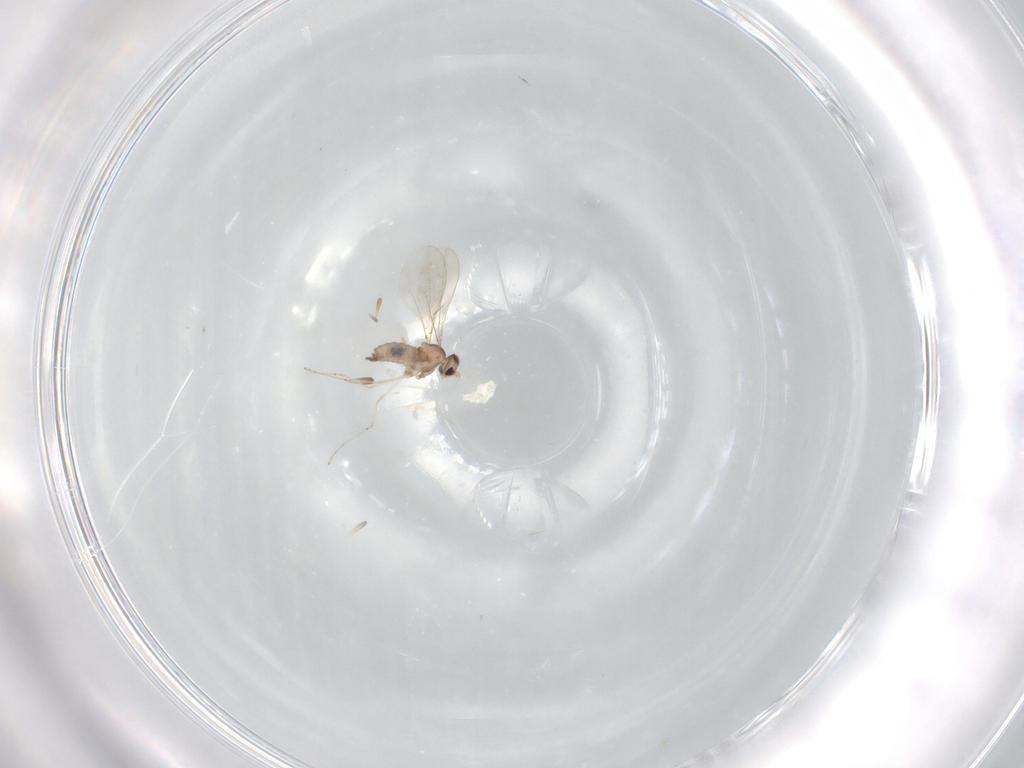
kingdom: Animalia
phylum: Arthropoda
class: Insecta
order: Diptera
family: Cecidomyiidae
